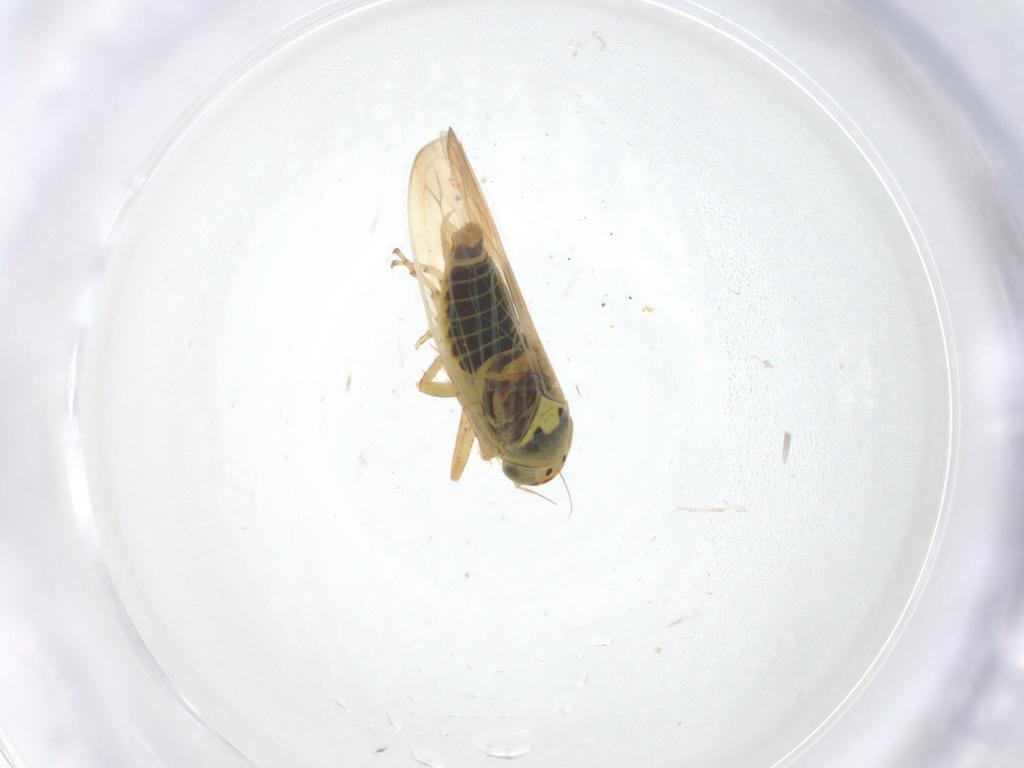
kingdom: Animalia
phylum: Arthropoda
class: Insecta
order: Hemiptera
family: Cicadellidae
